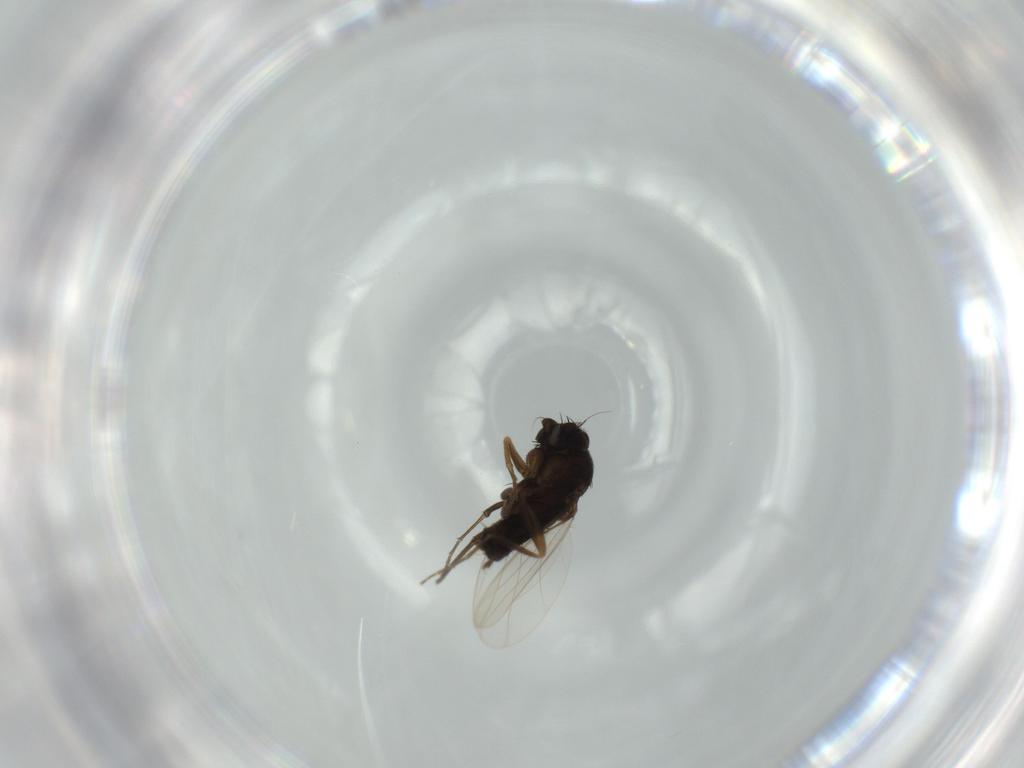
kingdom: Animalia
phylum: Arthropoda
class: Insecta
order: Diptera
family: Phoridae
